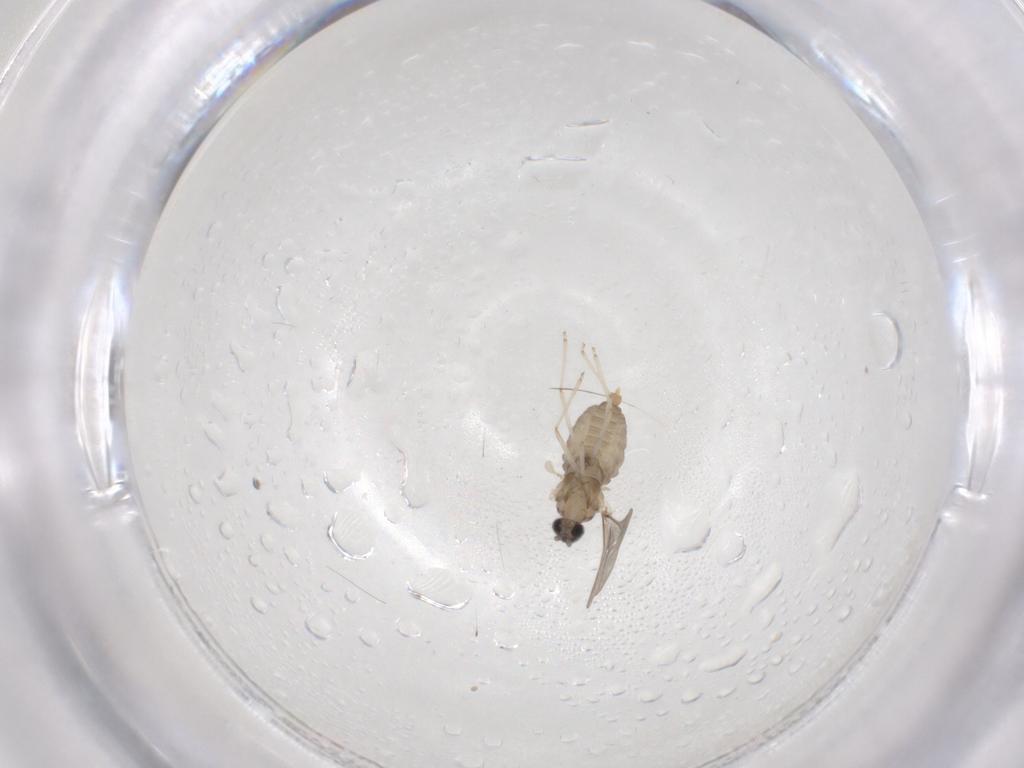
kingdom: Animalia
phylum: Arthropoda
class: Insecta
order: Diptera
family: Cecidomyiidae
